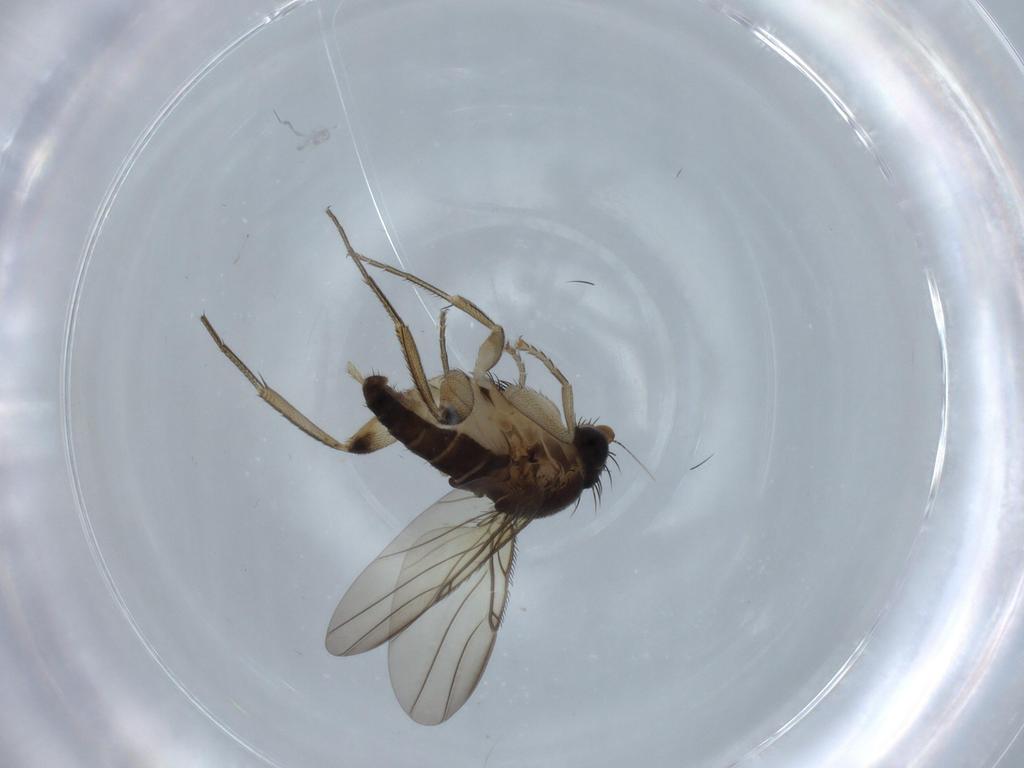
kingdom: Animalia
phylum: Arthropoda
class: Insecta
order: Diptera
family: Phoridae
